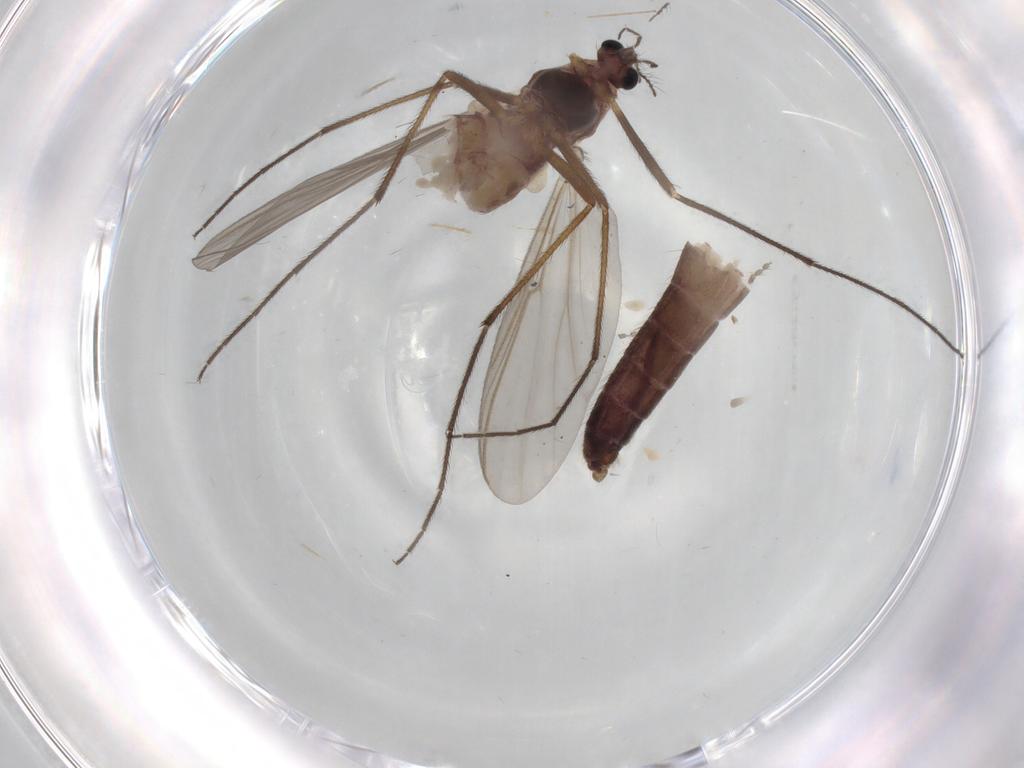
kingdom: Animalia
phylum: Arthropoda
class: Insecta
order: Diptera
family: Chironomidae
